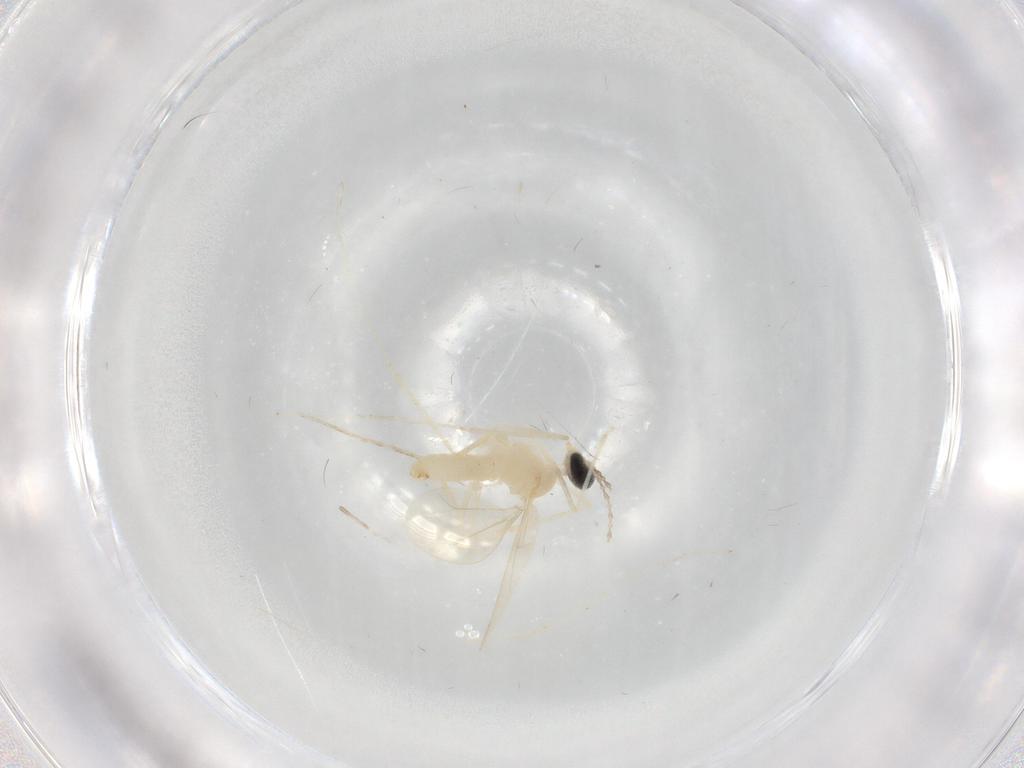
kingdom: Animalia
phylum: Arthropoda
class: Insecta
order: Diptera
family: Cecidomyiidae
